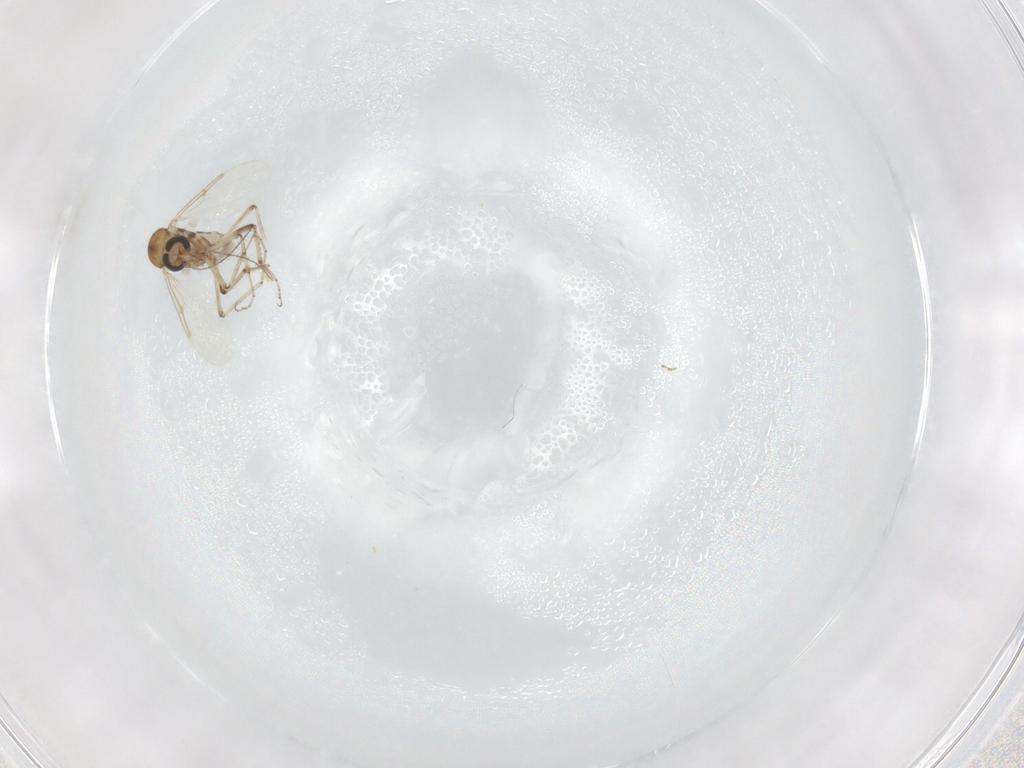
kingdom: Animalia
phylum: Arthropoda
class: Insecta
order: Diptera
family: Ceratopogonidae
